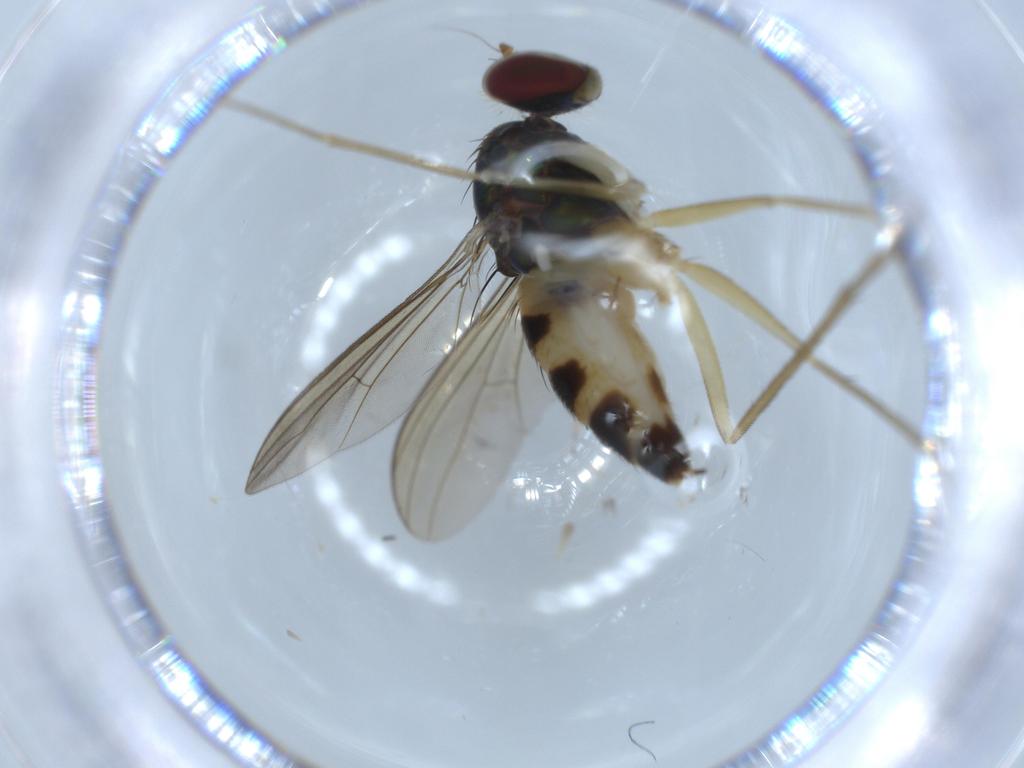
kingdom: Animalia
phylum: Arthropoda
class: Insecta
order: Diptera
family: Dolichopodidae
